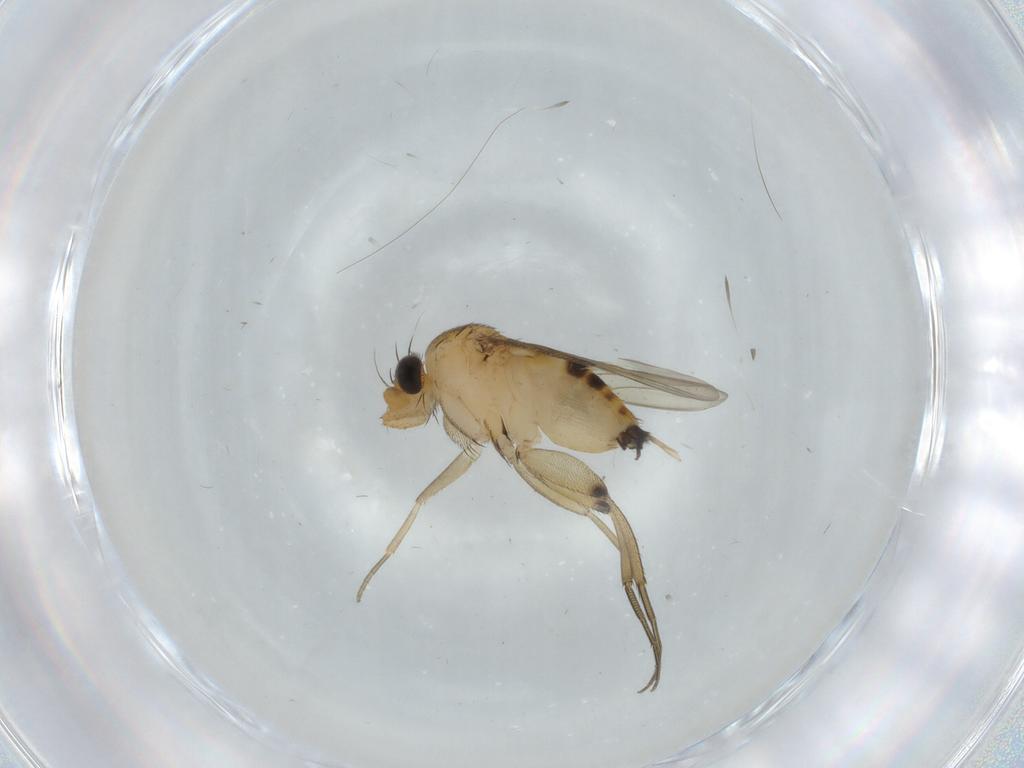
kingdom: Animalia
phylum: Arthropoda
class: Insecta
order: Diptera
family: Phoridae
